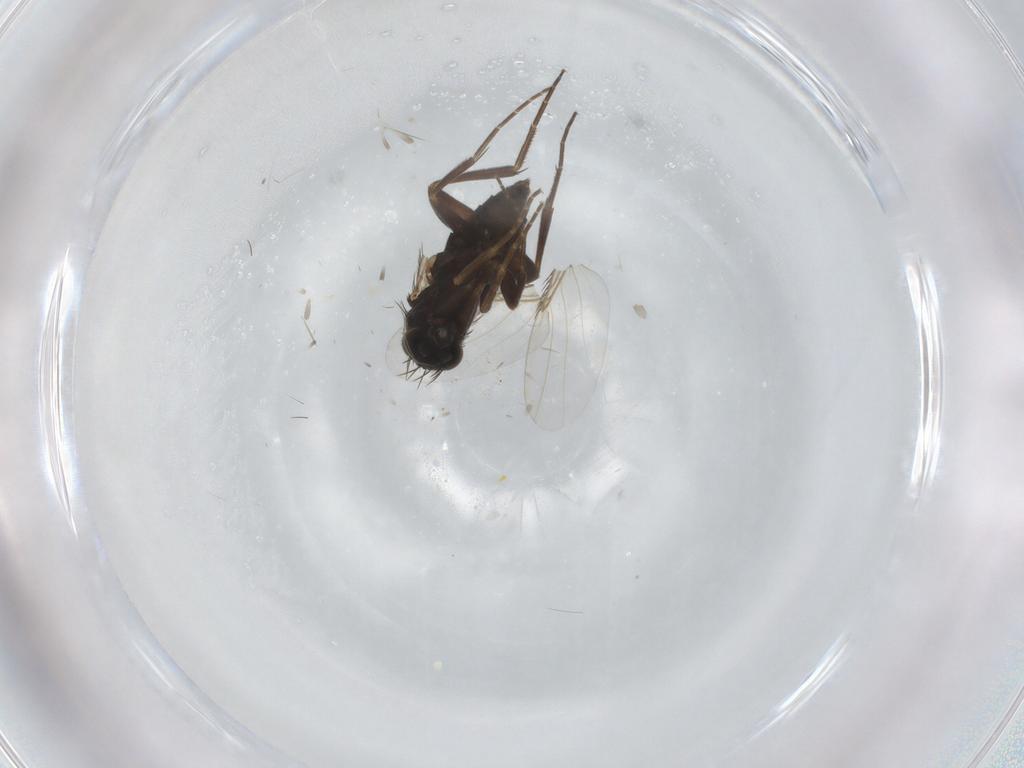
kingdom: Animalia
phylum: Arthropoda
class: Insecta
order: Diptera
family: Phoridae
